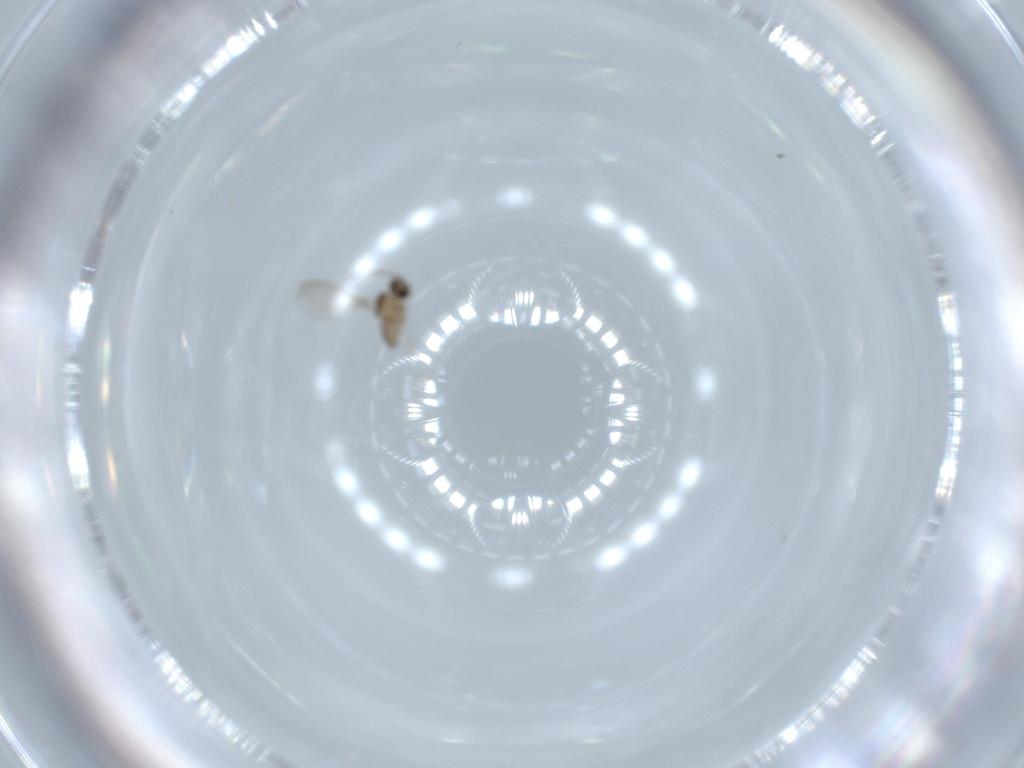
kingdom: Animalia
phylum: Arthropoda
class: Insecta
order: Diptera
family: Cecidomyiidae
